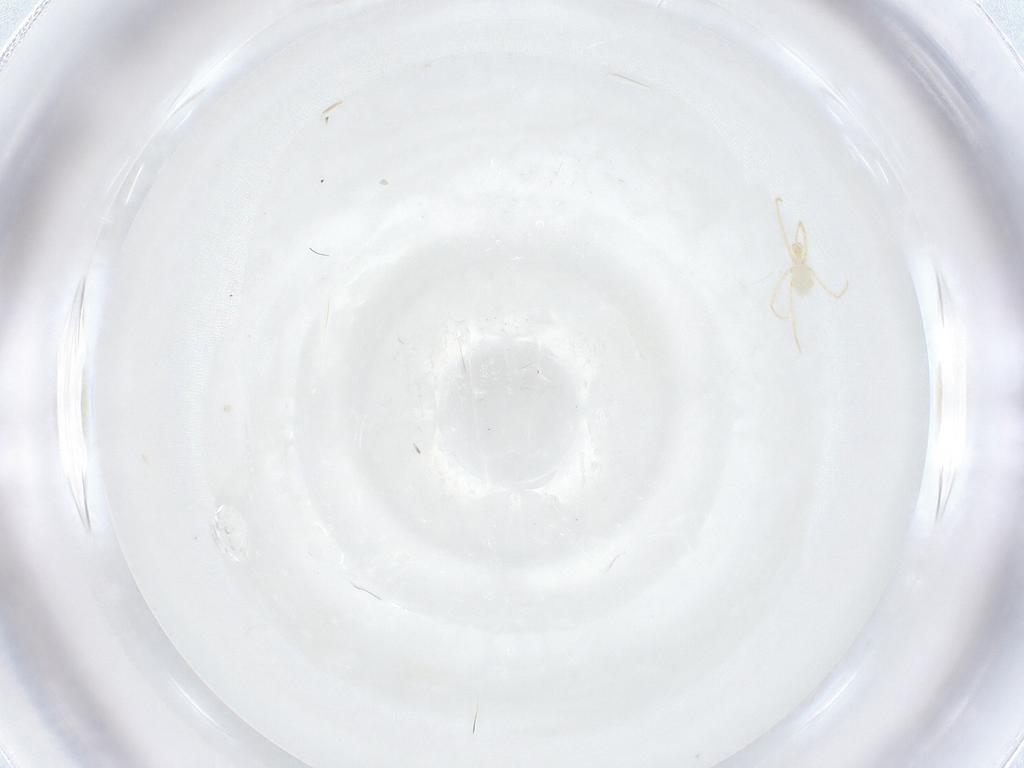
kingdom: Animalia
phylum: Arthropoda
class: Arachnida
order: Trombidiformes
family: Erythraeidae
